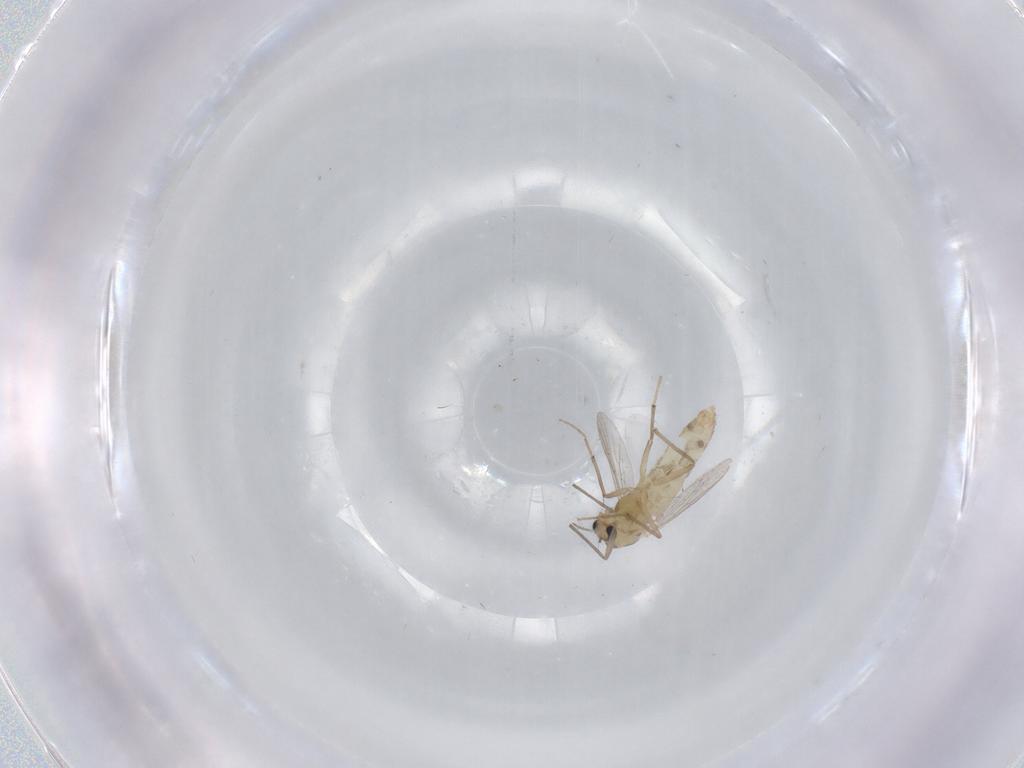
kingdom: Animalia
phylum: Arthropoda
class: Insecta
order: Diptera
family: Chironomidae
